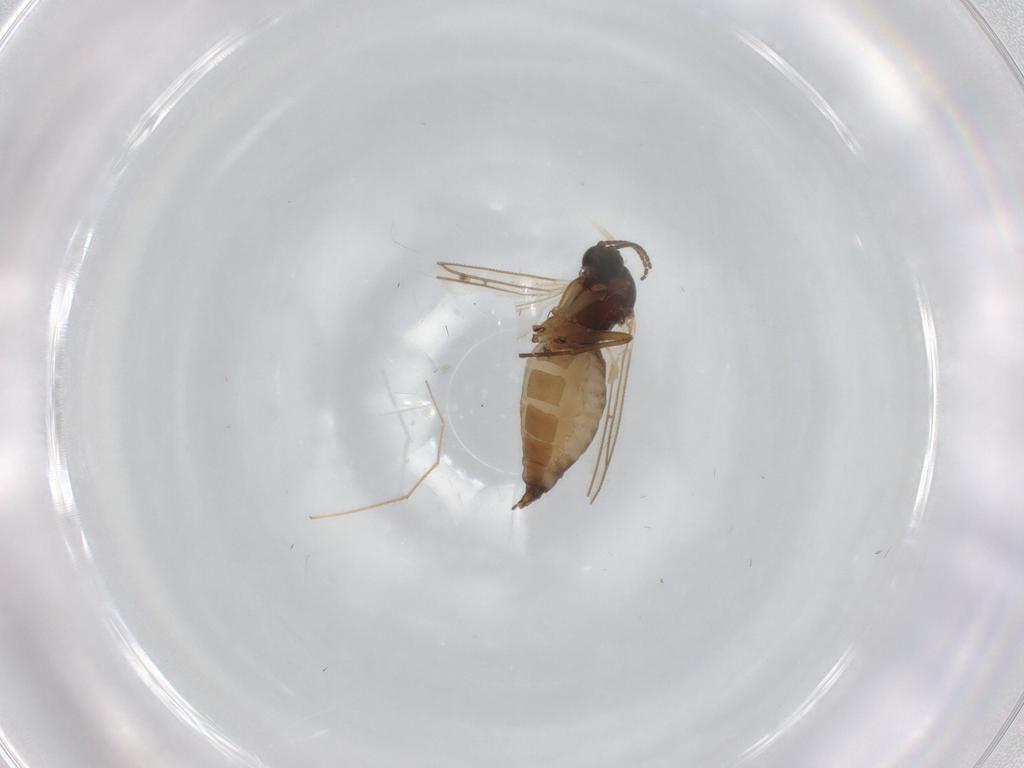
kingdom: Animalia
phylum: Arthropoda
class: Insecta
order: Diptera
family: Sciaridae
